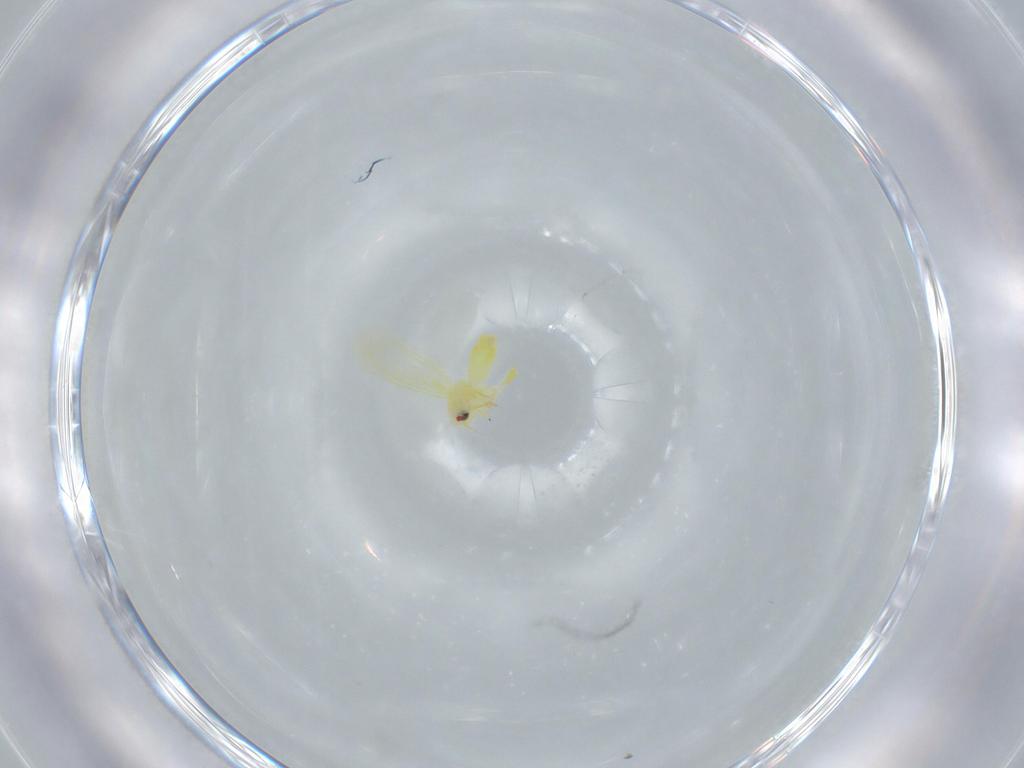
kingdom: Animalia
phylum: Arthropoda
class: Insecta
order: Hemiptera
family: Aleyrodidae
